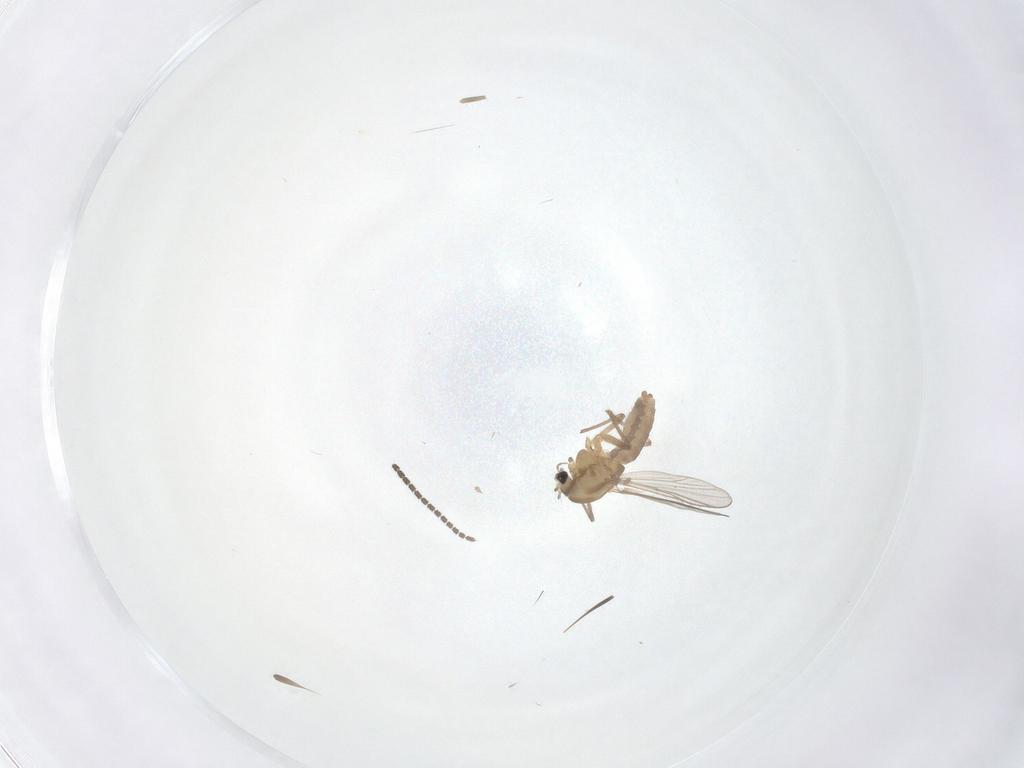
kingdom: Animalia
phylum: Arthropoda
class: Insecta
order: Diptera
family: Chironomidae
